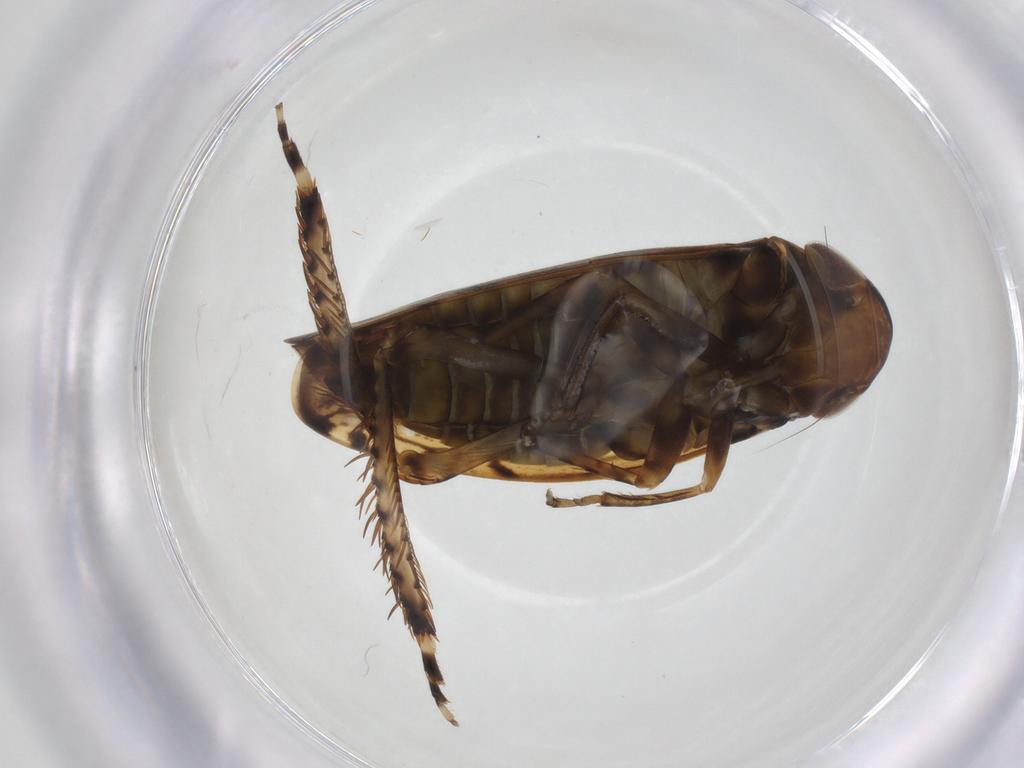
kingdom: Animalia
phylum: Arthropoda
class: Insecta
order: Hemiptera
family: Cicadellidae
